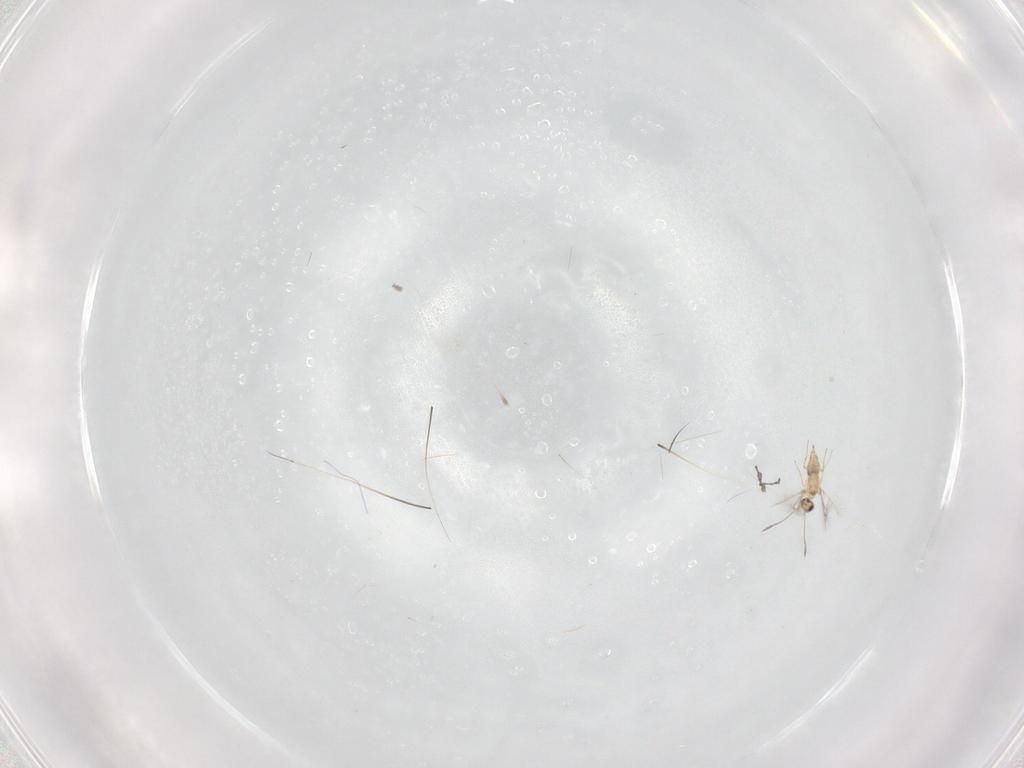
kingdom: Animalia
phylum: Arthropoda
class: Insecta
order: Hymenoptera
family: Mymaridae
